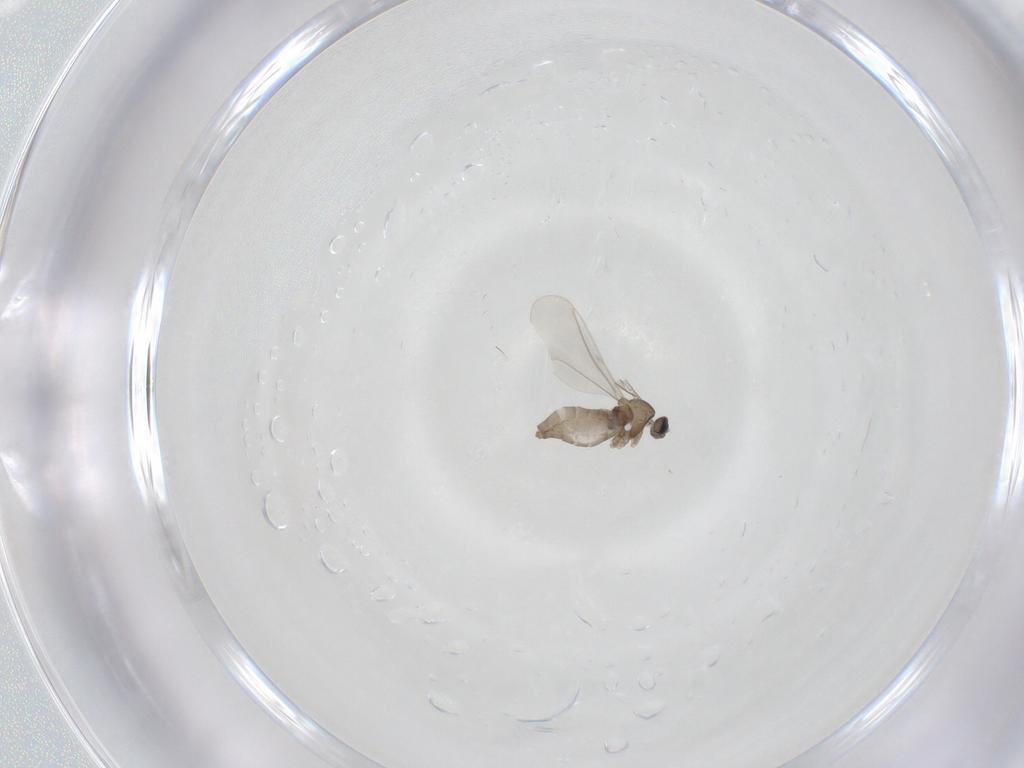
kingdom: Animalia
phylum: Arthropoda
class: Insecta
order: Diptera
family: Cecidomyiidae
